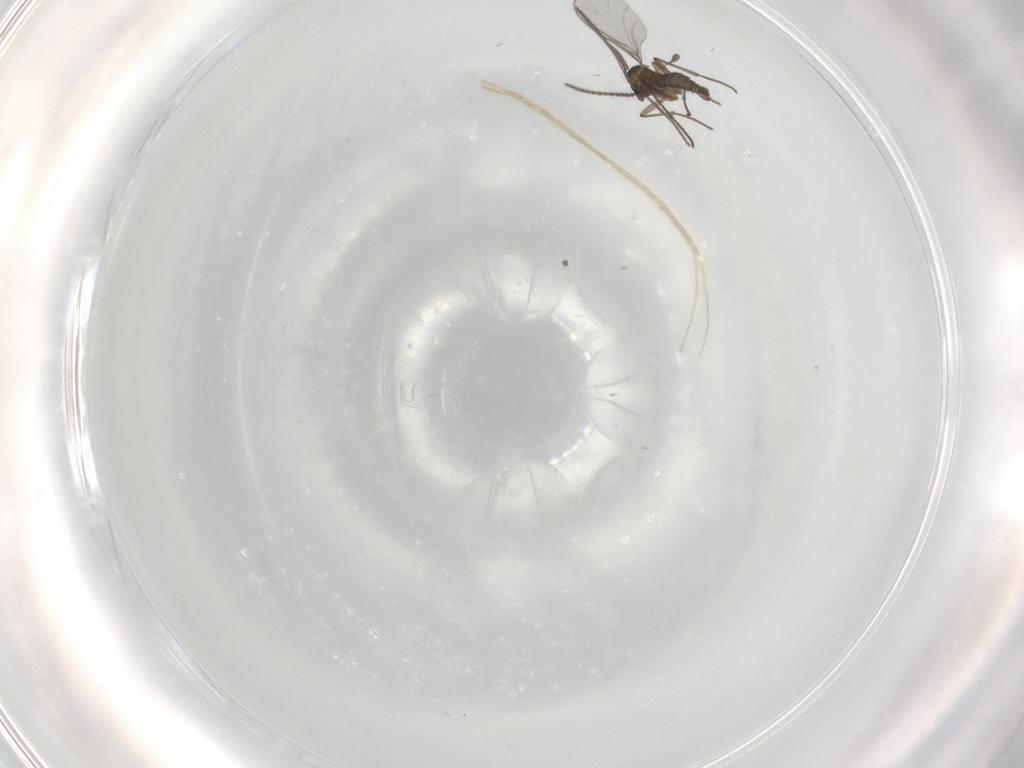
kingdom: Animalia
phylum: Arthropoda
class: Insecta
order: Diptera
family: Sciaridae
